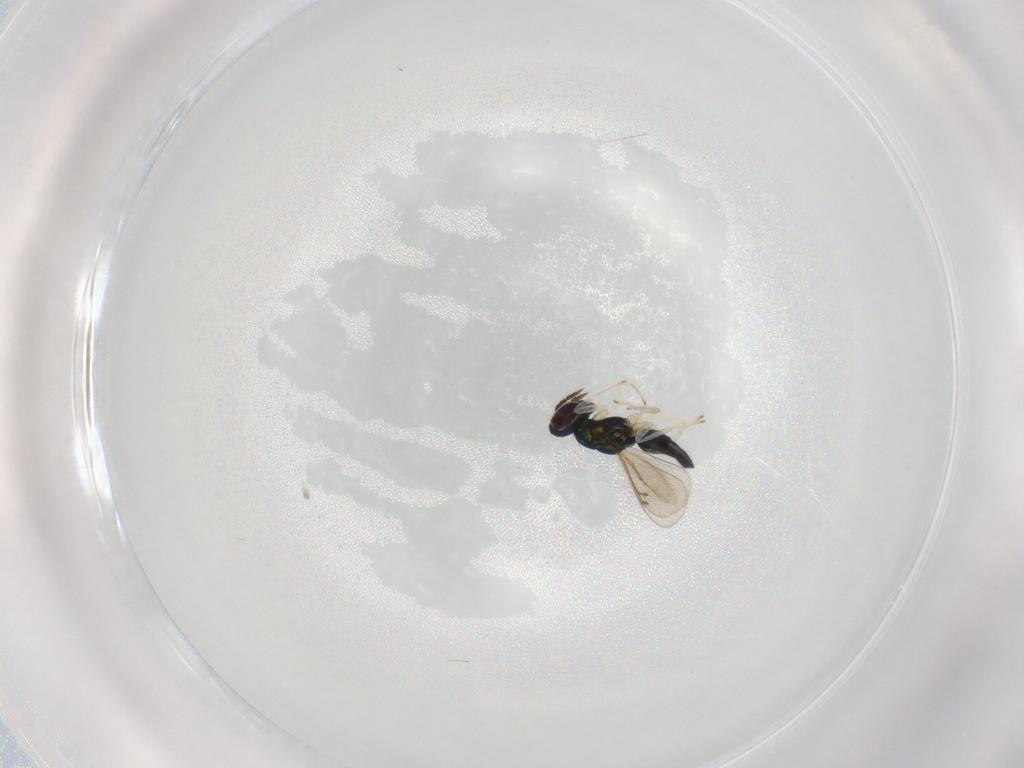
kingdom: Animalia
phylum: Arthropoda
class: Insecta
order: Hymenoptera
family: Eulophidae
